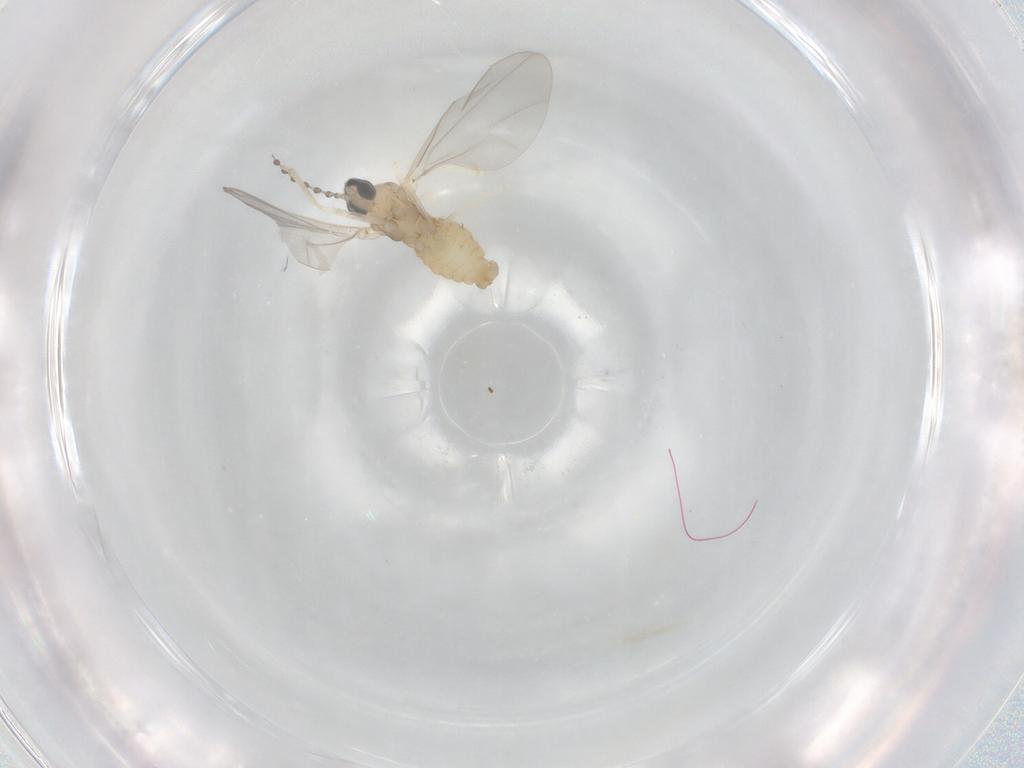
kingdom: Animalia
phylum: Arthropoda
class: Insecta
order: Diptera
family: Cecidomyiidae
